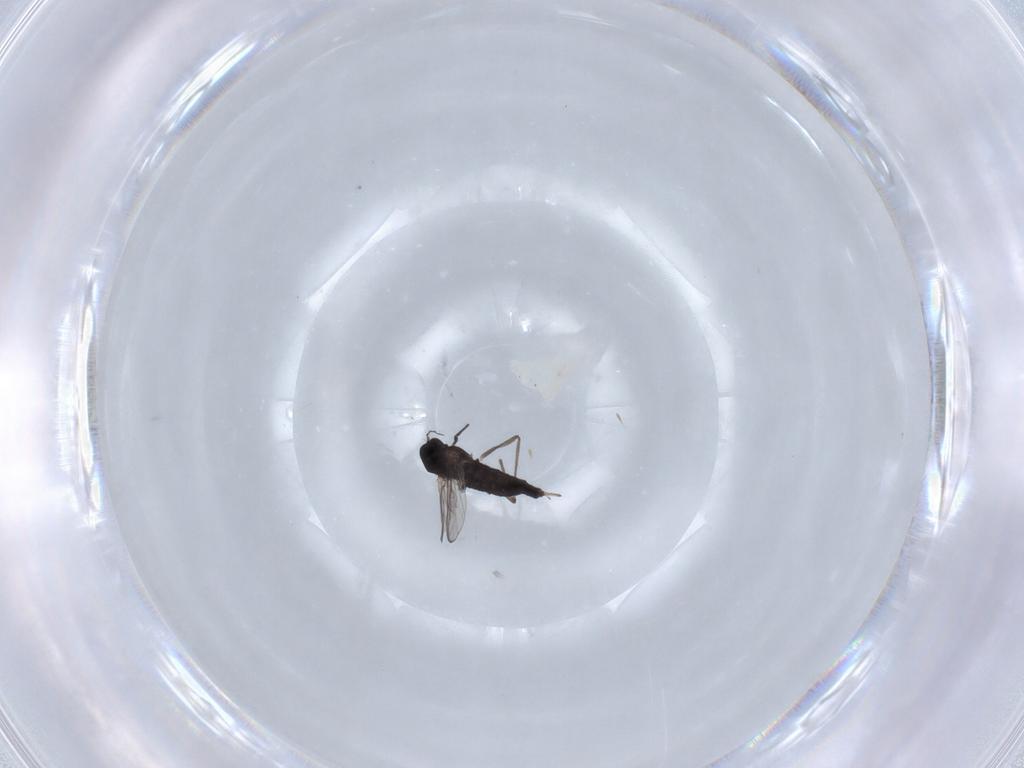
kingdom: Animalia
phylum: Arthropoda
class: Insecta
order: Diptera
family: Chironomidae
